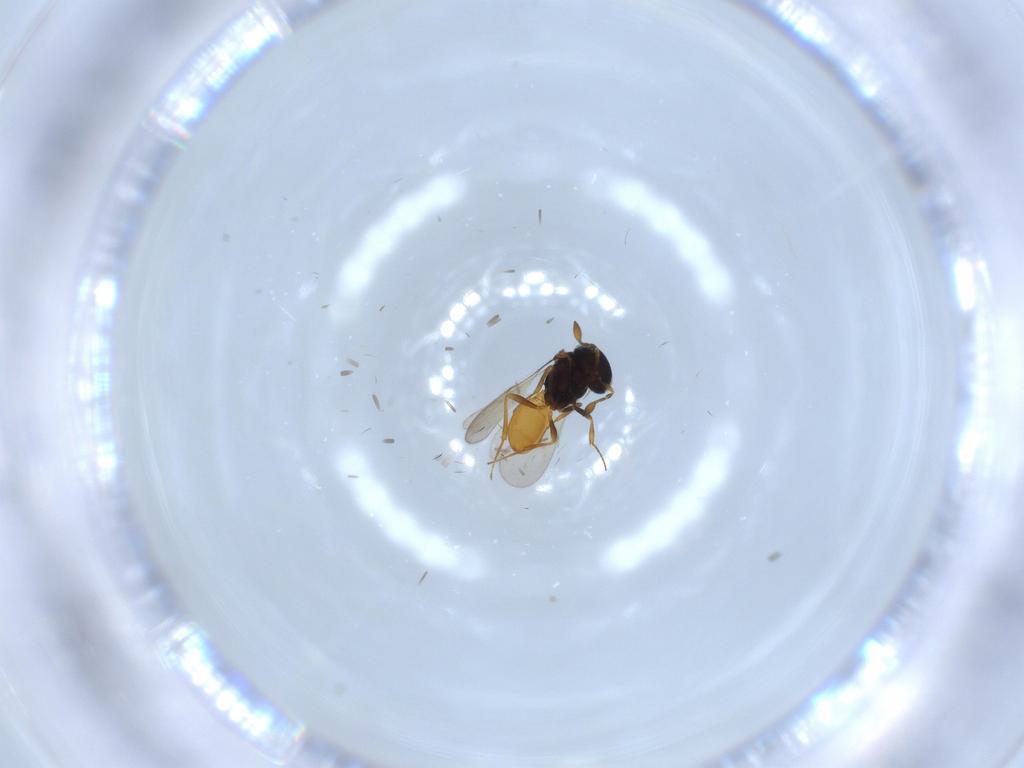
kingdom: Animalia
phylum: Arthropoda
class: Insecta
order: Hymenoptera
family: Scelionidae
